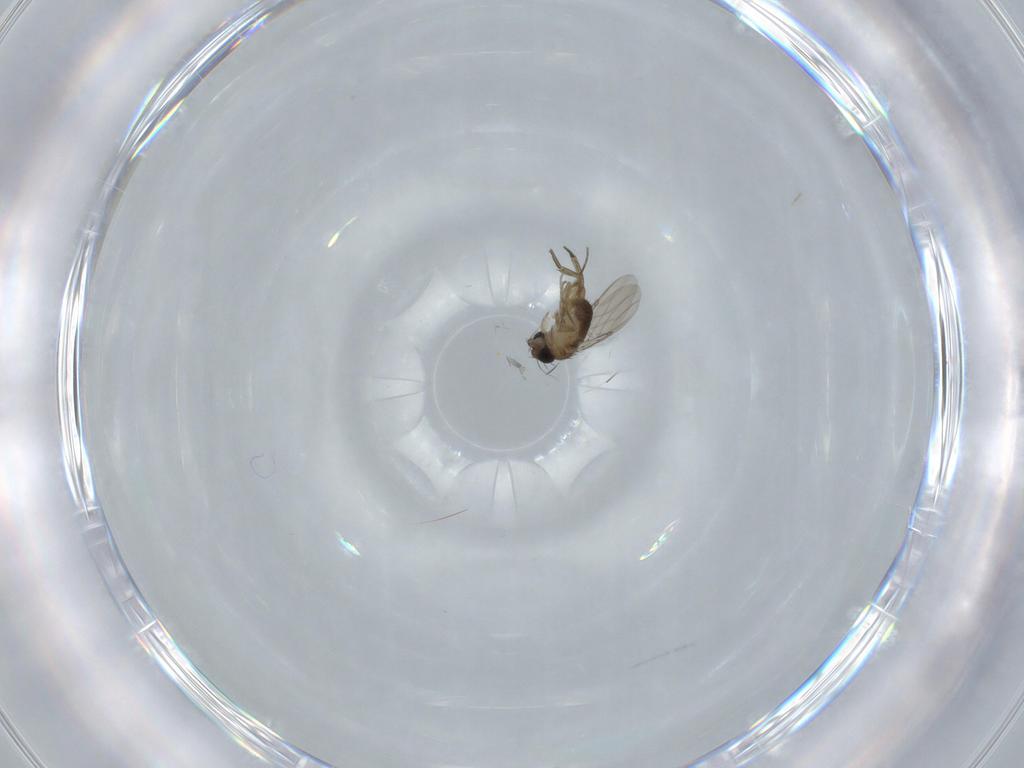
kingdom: Animalia
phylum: Arthropoda
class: Insecta
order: Diptera
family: Phoridae
